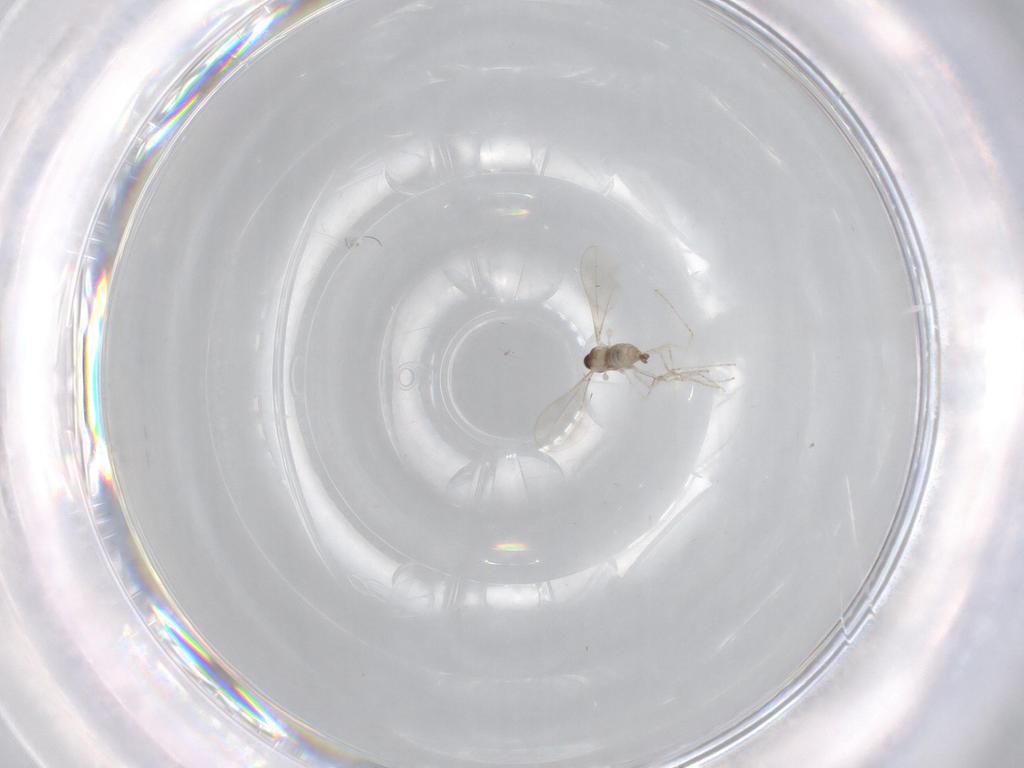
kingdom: Animalia
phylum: Arthropoda
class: Insecta
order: Diptera
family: Cecidomyiidae
